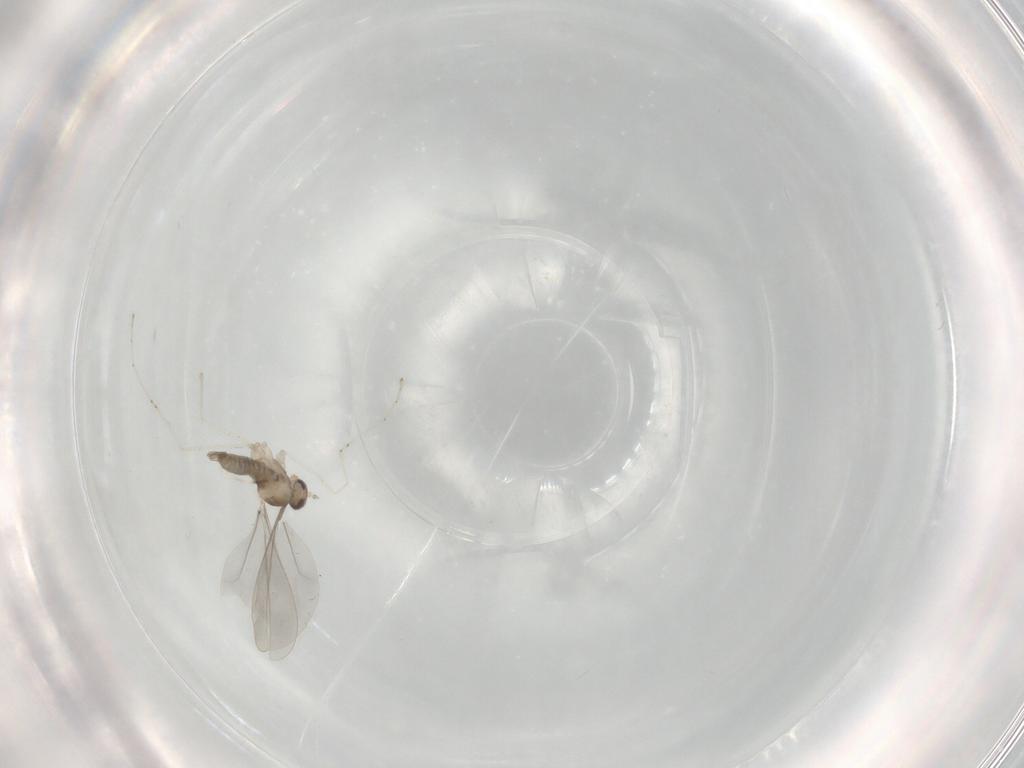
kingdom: Animalia
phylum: Arthropoda
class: Insecta
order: Diptera
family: Cecidomyiidae
